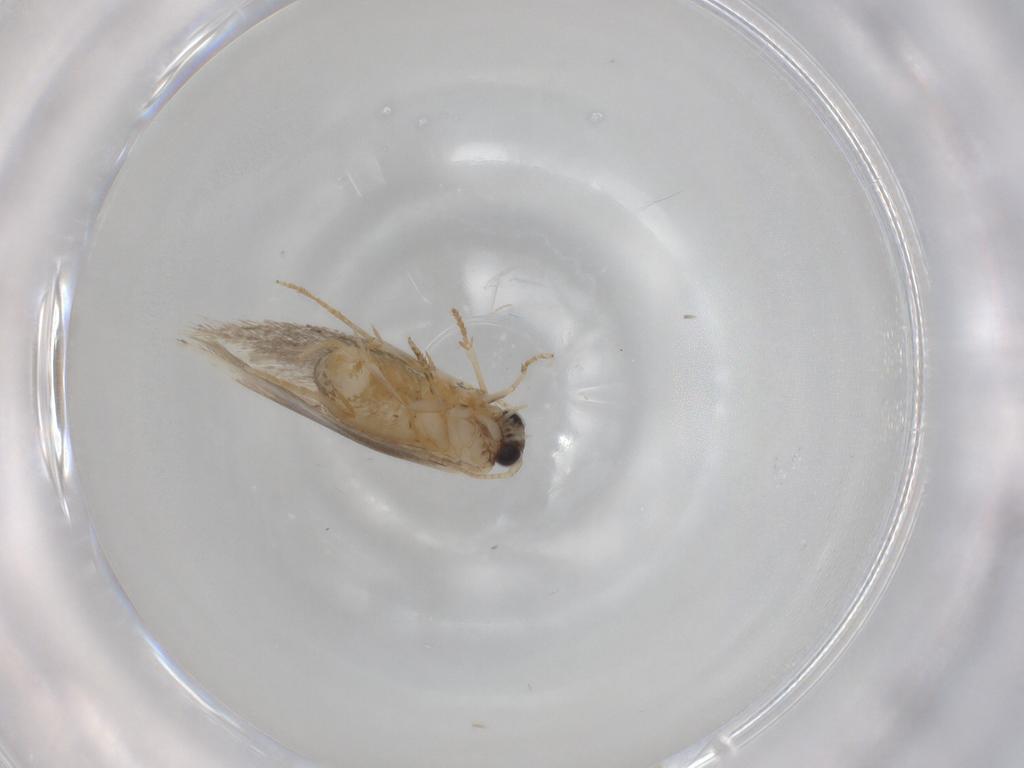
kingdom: Animalia
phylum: Arthropoda
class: Insecta
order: Lepidoptera
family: Tineidae
